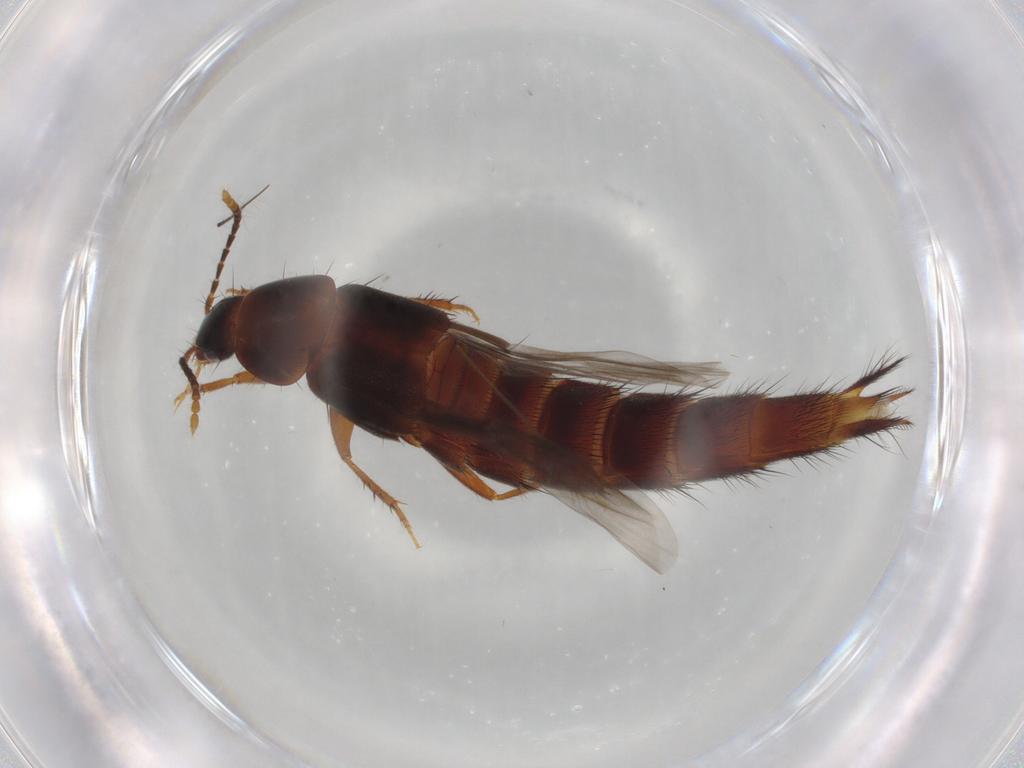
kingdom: Animalia
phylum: Arthropoda
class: Insecta
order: Coleoptera
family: Staphylinidae
